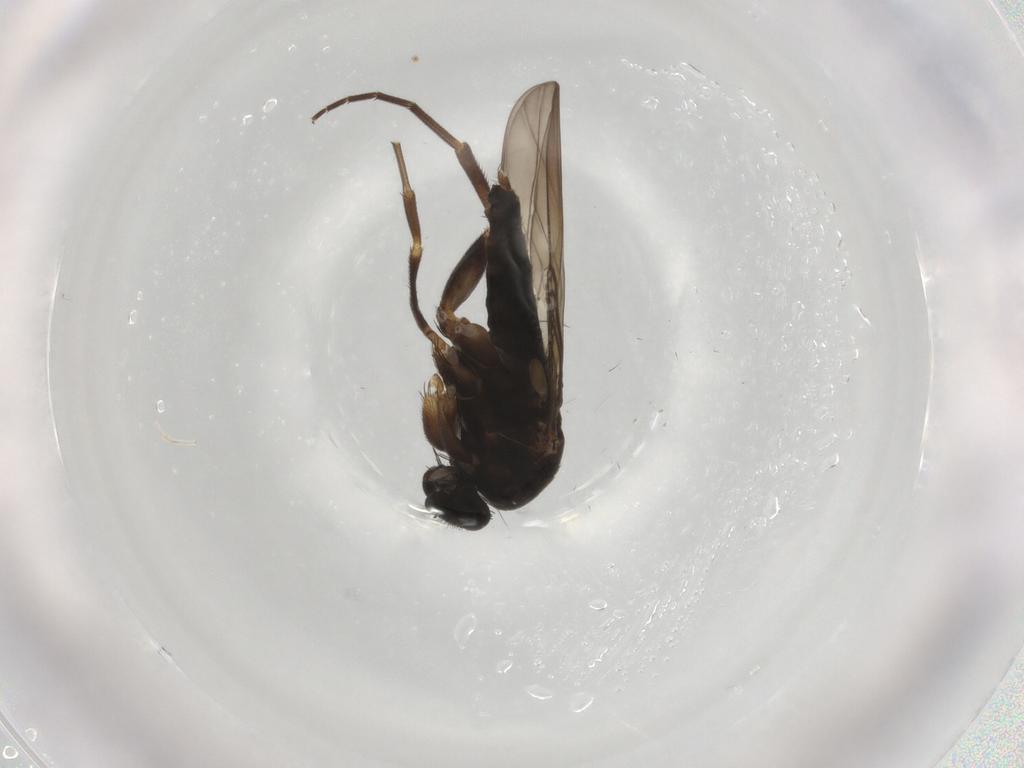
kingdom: Animalia
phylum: Arthropoda
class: Insecta
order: Diptera
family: Phoridae
